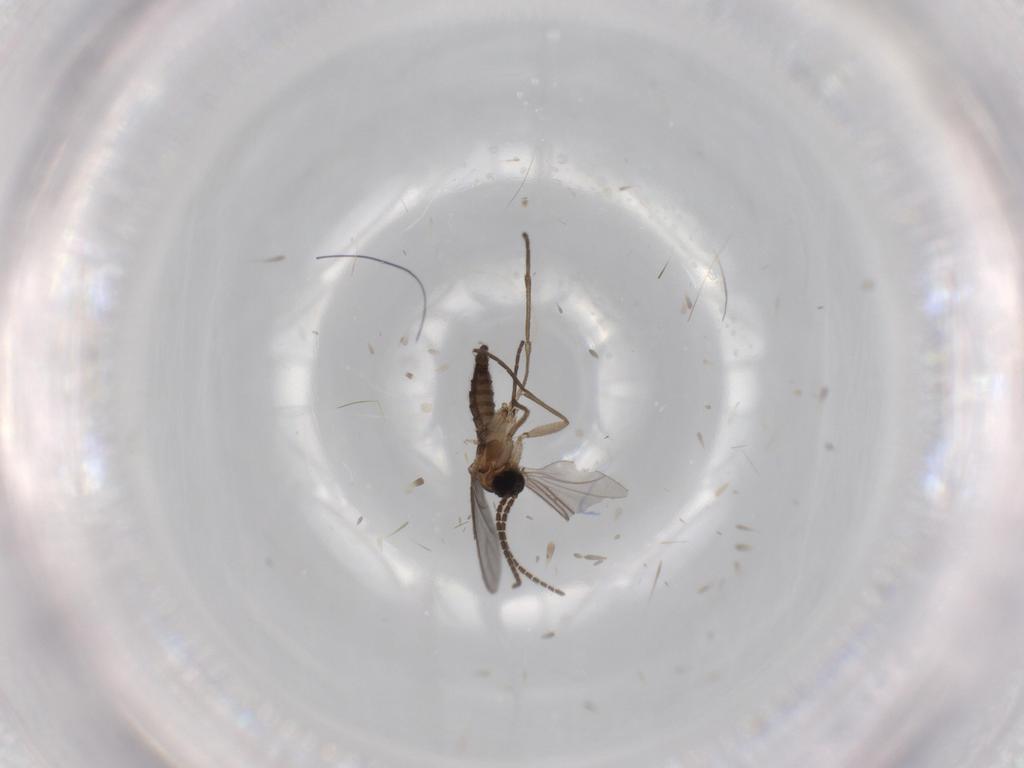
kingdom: Animalia
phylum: Arthropoda
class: Insecta
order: Diptera
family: Sciaridae
